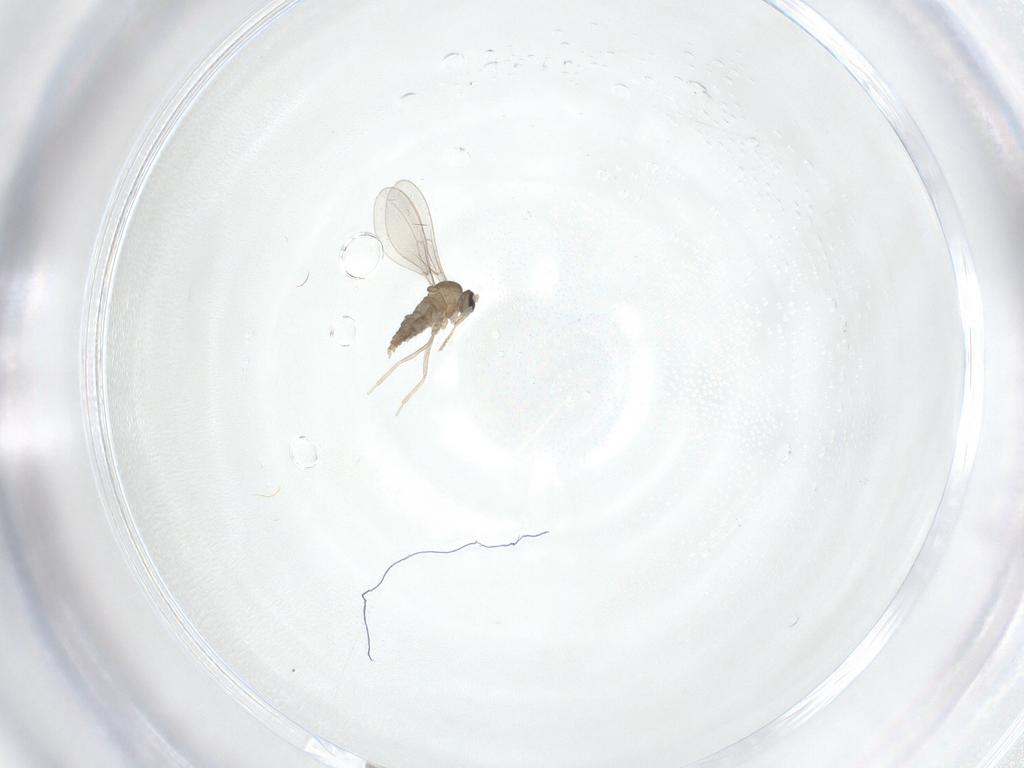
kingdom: Animalia
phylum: Arthropoda
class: Insecta
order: Diptera
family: Cecidomyiidae
